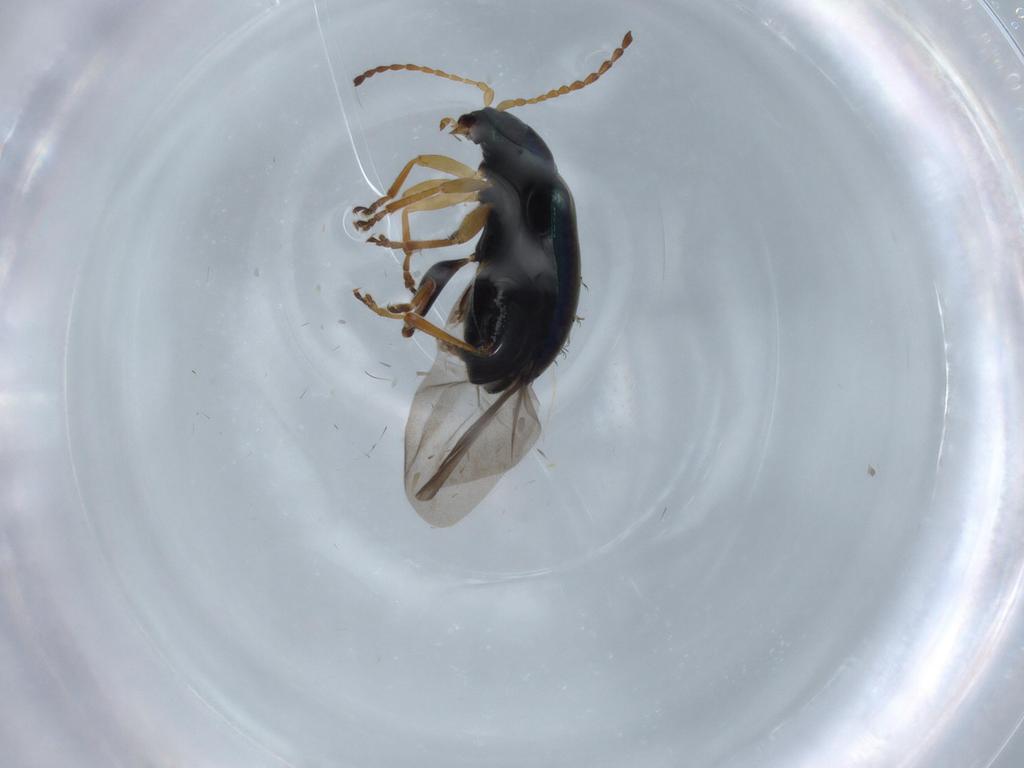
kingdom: Animalia
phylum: Arthropoda
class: Insecta
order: Coleoptera
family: Chrysomelidae
